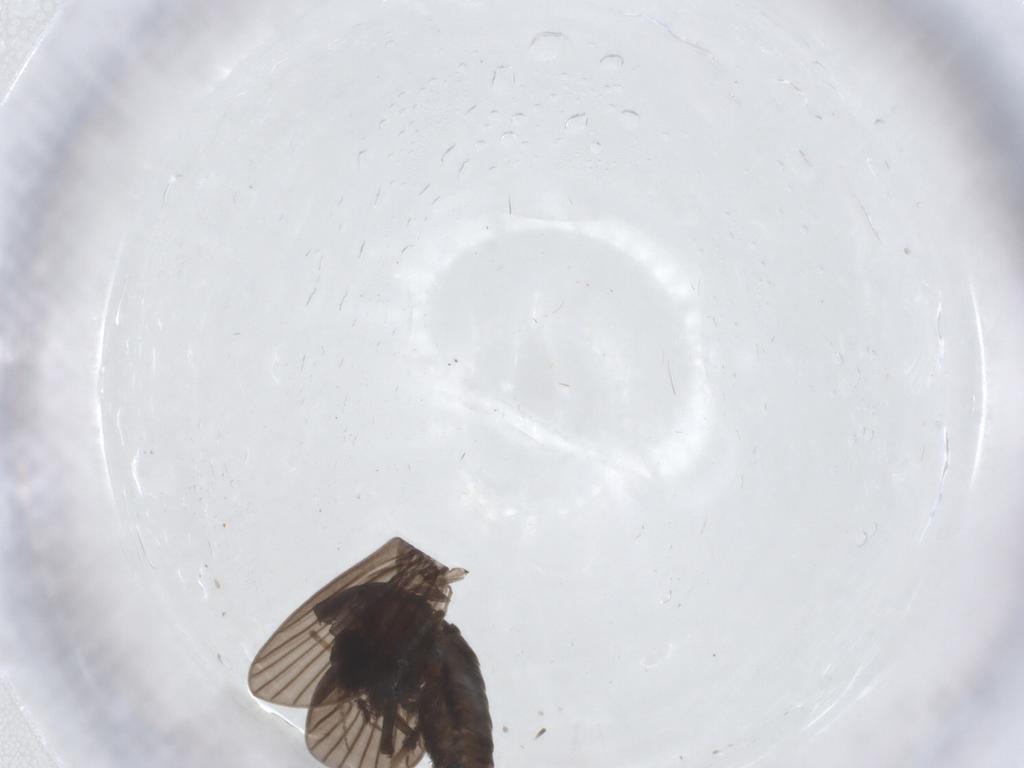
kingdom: Animalia
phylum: Arthropoda
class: Insecta
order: Diptera
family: Psychodidae
